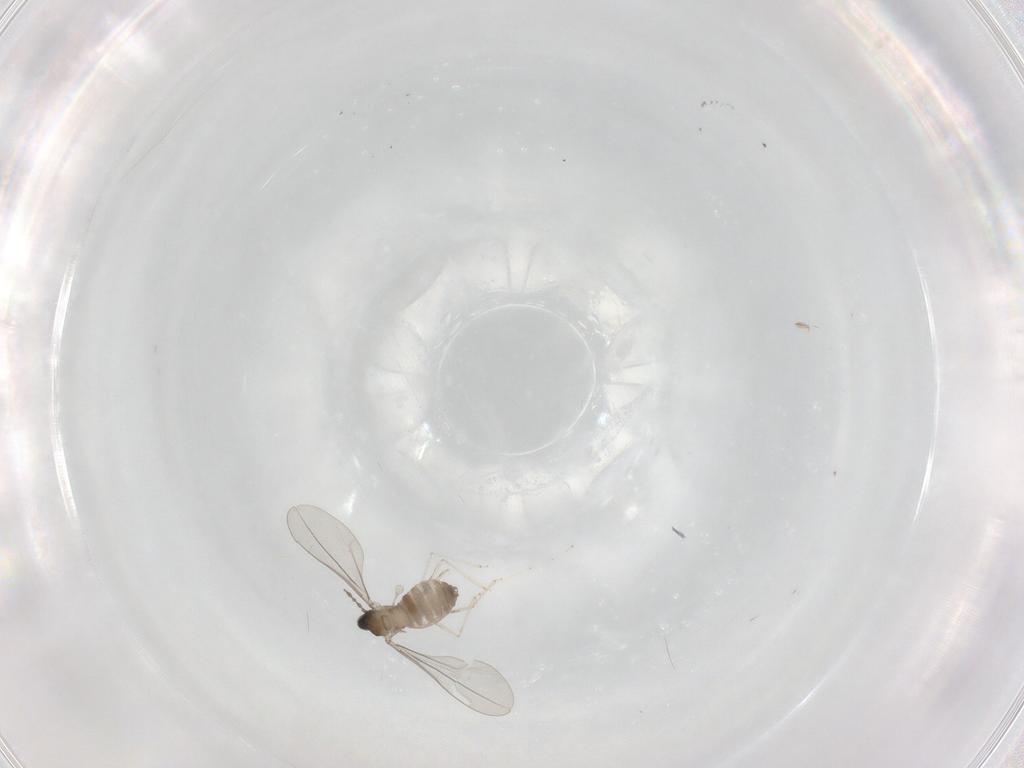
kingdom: Animalia
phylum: Arthropoda
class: Insecta
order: Diptera
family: Cecidomyiidae
